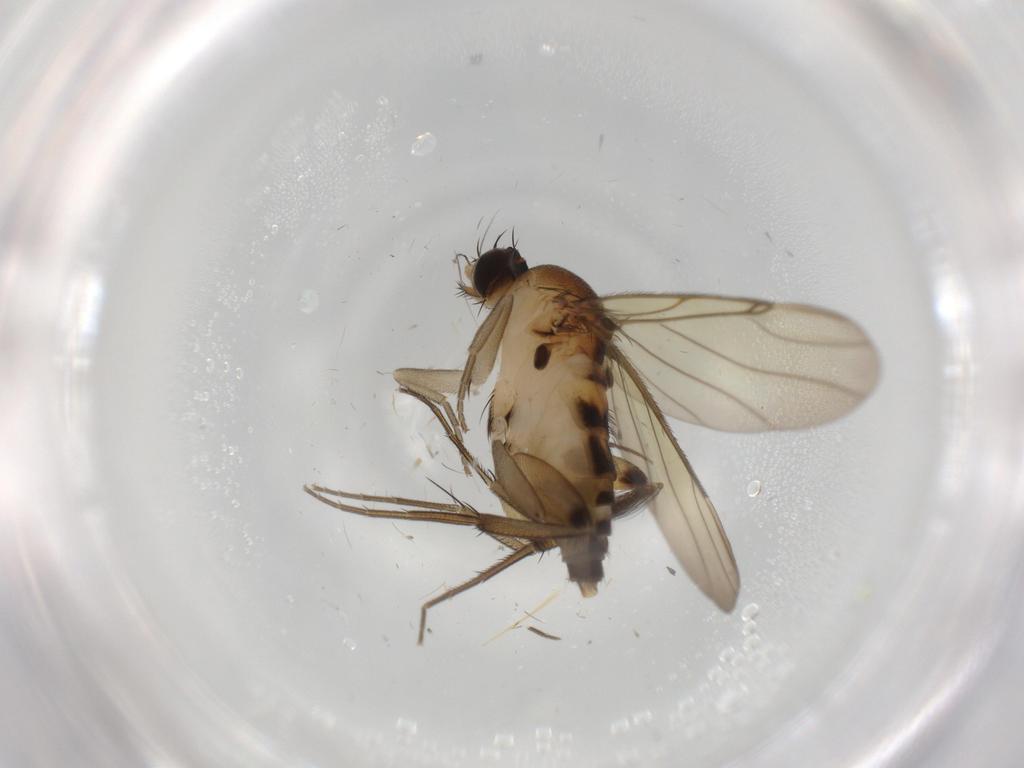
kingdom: Animalia
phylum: Arthropoda
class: Insecta
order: Diptera
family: Phoridae
